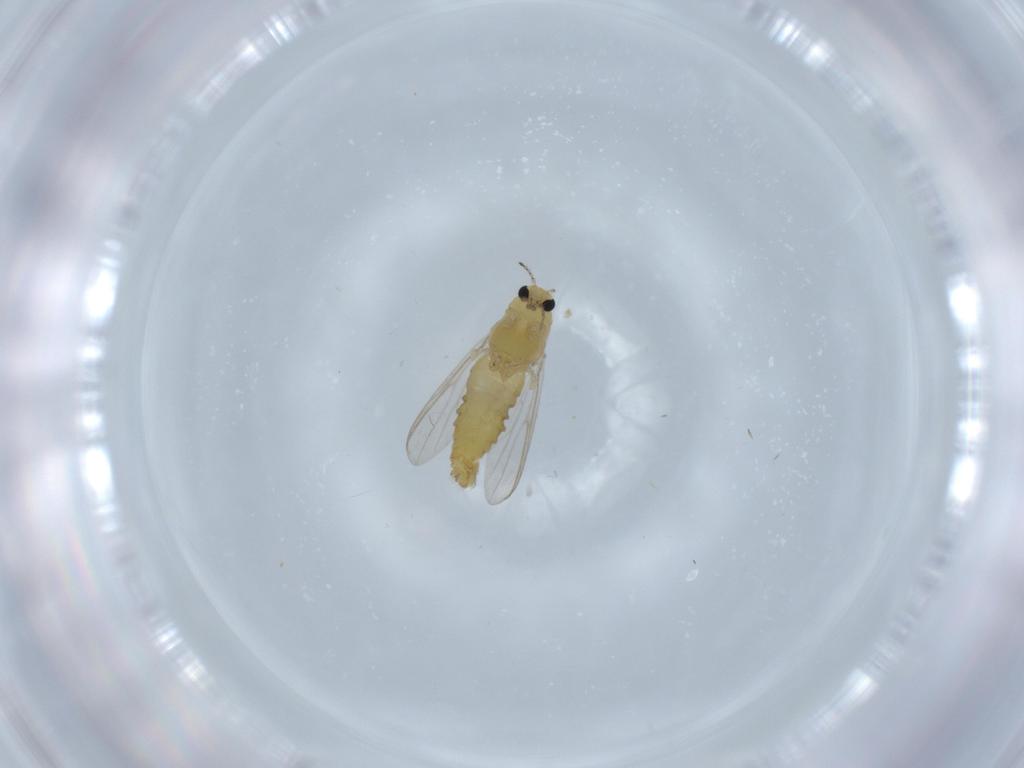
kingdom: Animalia
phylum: Arthropoda
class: Insecta
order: Diptera
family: Chironomidae
